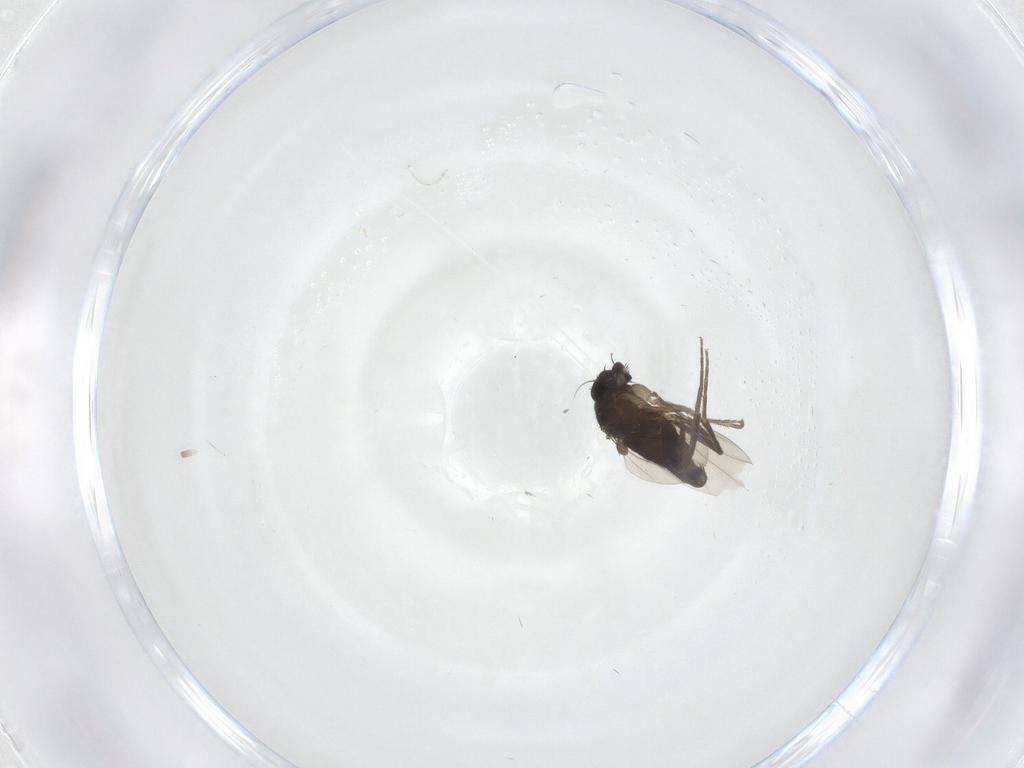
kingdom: Animalia
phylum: Arthropoda
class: Insecta
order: Diptera
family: Phoridae
